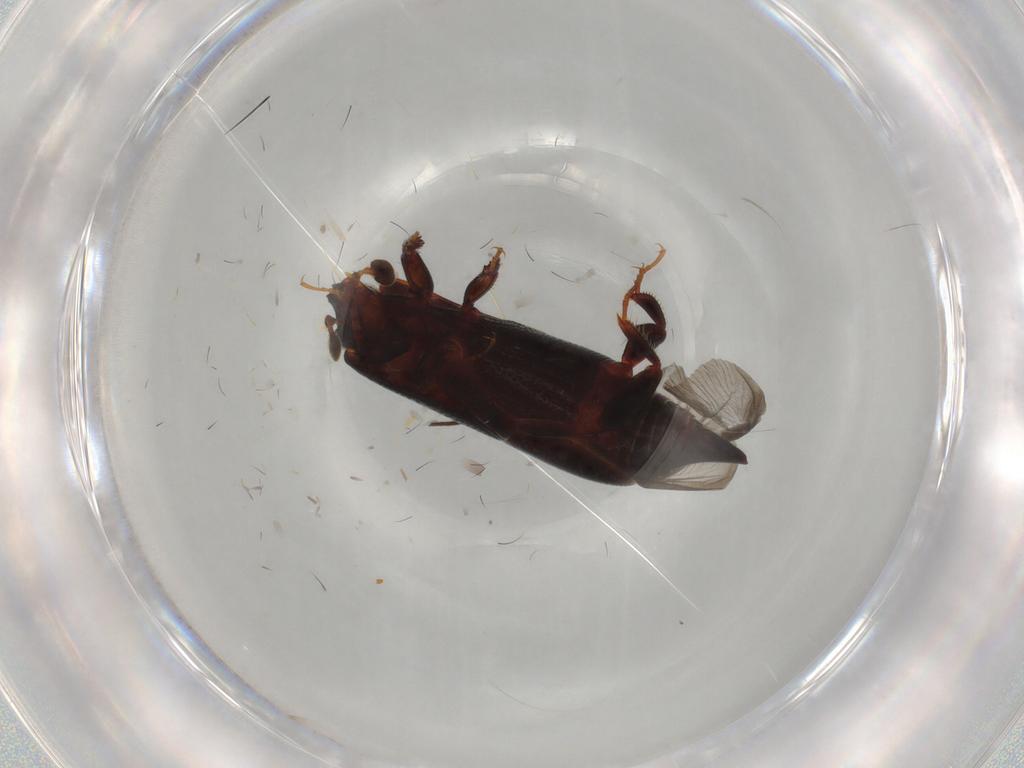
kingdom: Animalia
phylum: Arthropoda
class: Insecta
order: Coleoptera
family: Histeridae
